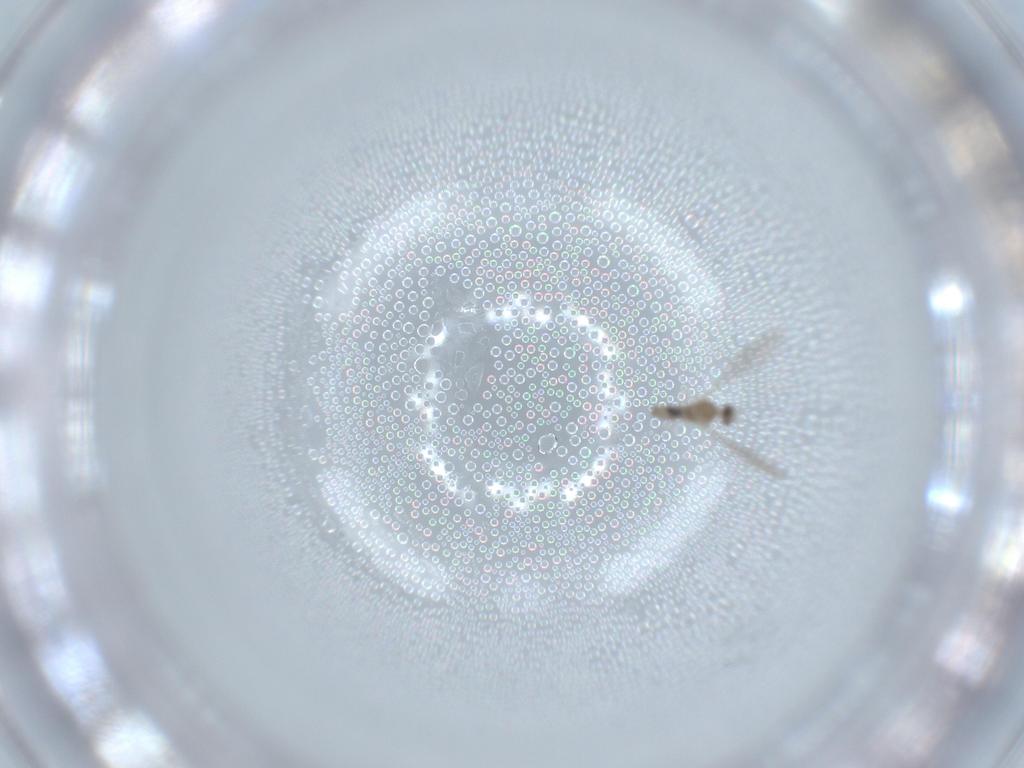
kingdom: Animalia
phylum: Arthropoda
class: Insecta
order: Diptera
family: Cecidomyiidae
